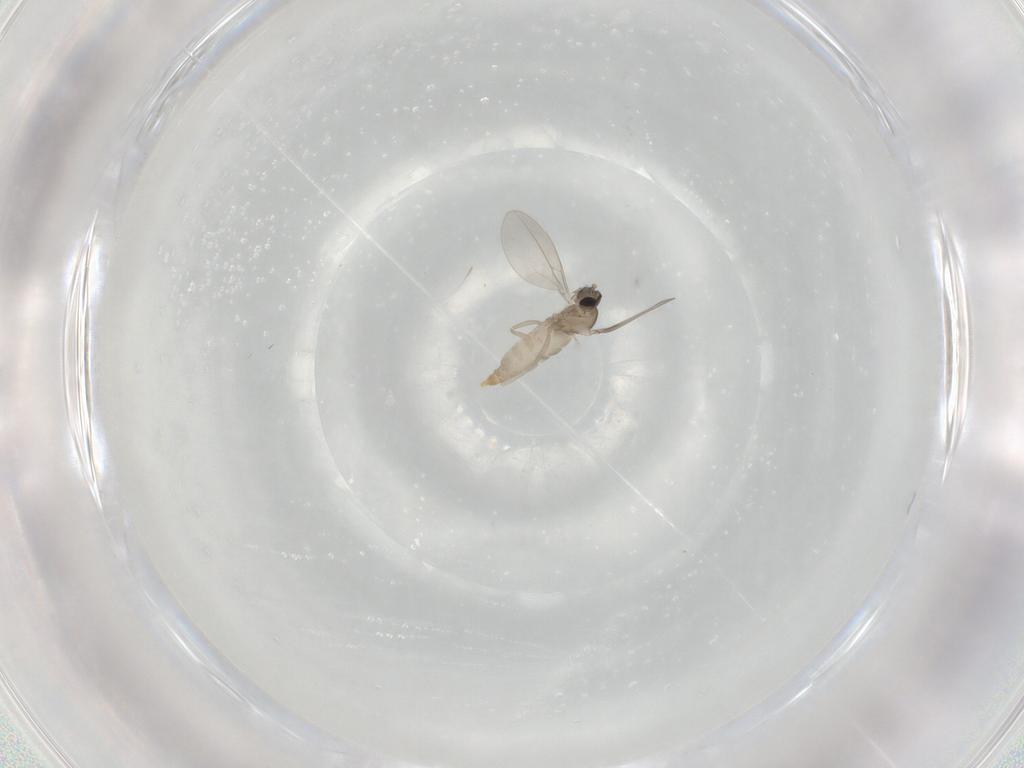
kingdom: Animalia
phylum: Arthropoda
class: Insecta
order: Diptera
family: Cecidomyiidae
